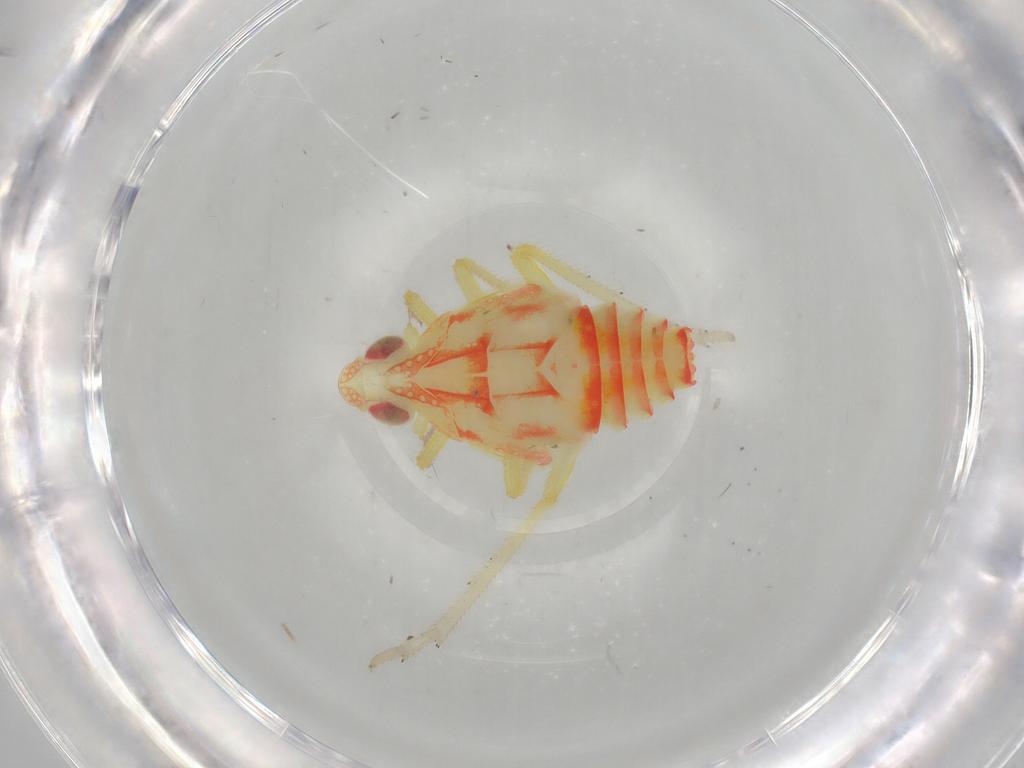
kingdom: Animalia
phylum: Arthropoda
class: Insecta
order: Hemiptera
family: Tropiduchidae
